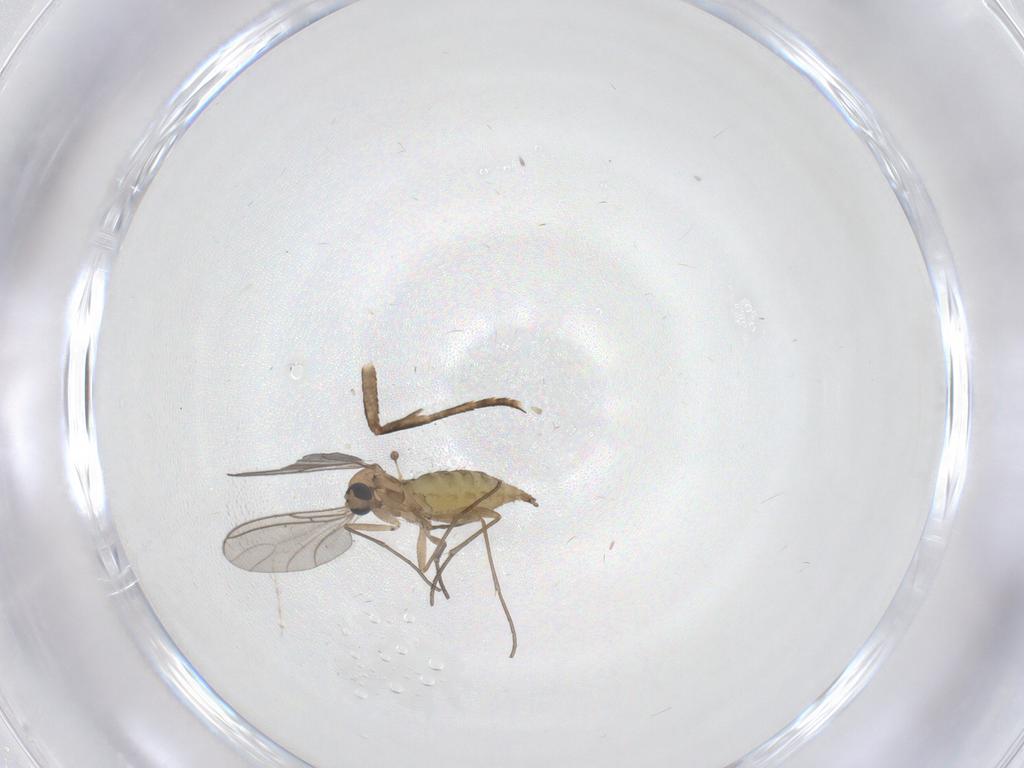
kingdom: Animalia
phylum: Arthropoda
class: Insecta
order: Diptera
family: Sciaridae
